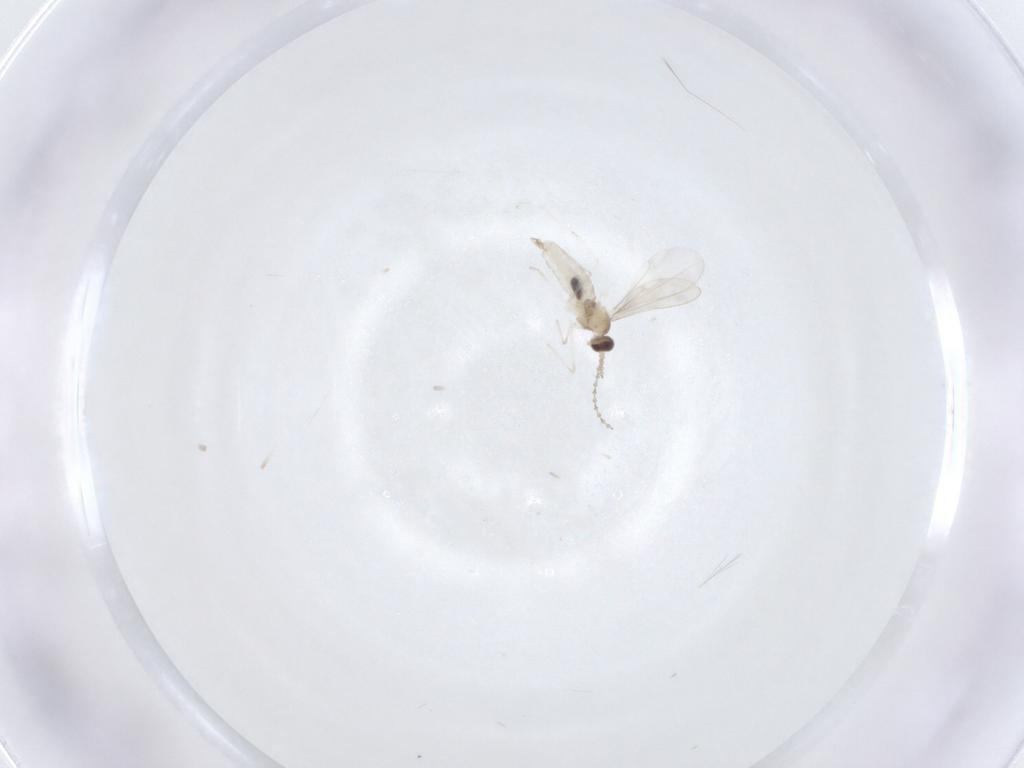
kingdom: Animalia
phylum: Arthropoda
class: Insecta
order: Diptera
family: Cecidomyiidae
